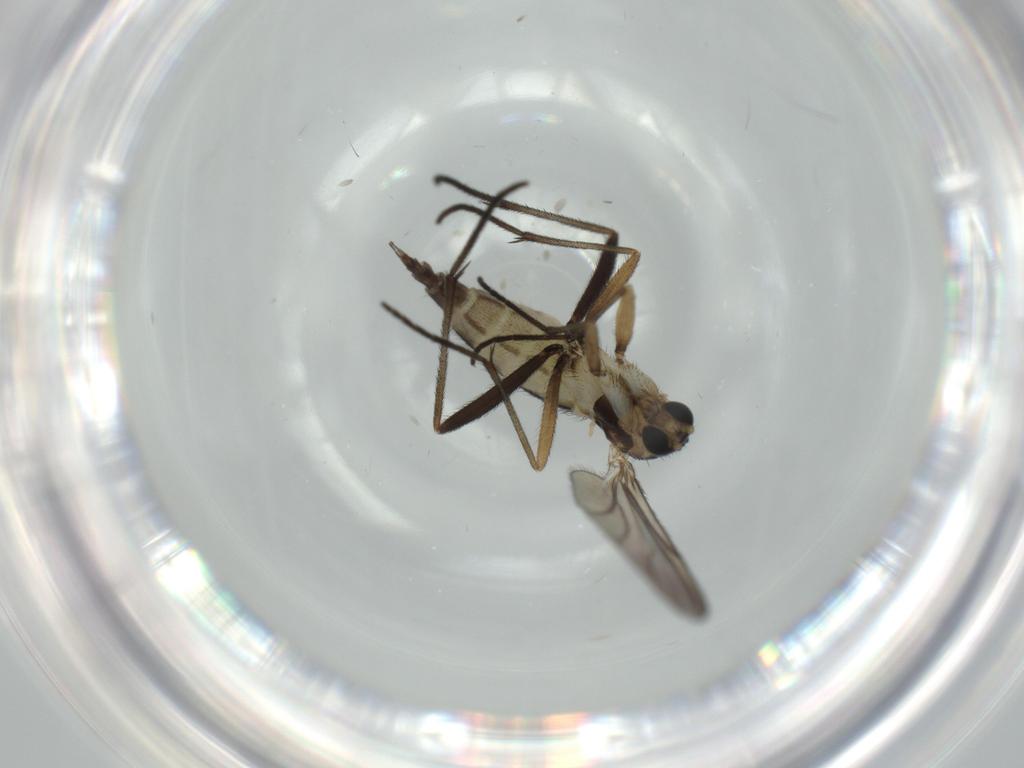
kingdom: Animalia
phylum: Arthropoda
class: Insecta
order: Diptera
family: Sciaridae
